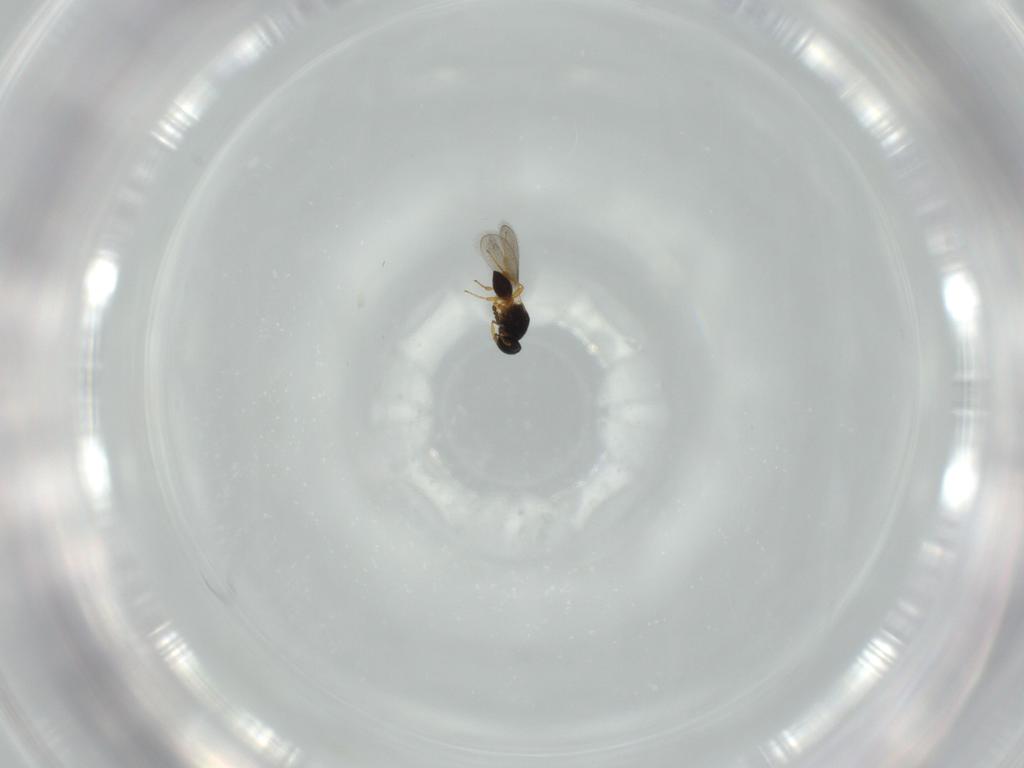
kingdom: Animalia
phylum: Arthropoda
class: Insecta
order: Hymenoptera
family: Platygastridae
